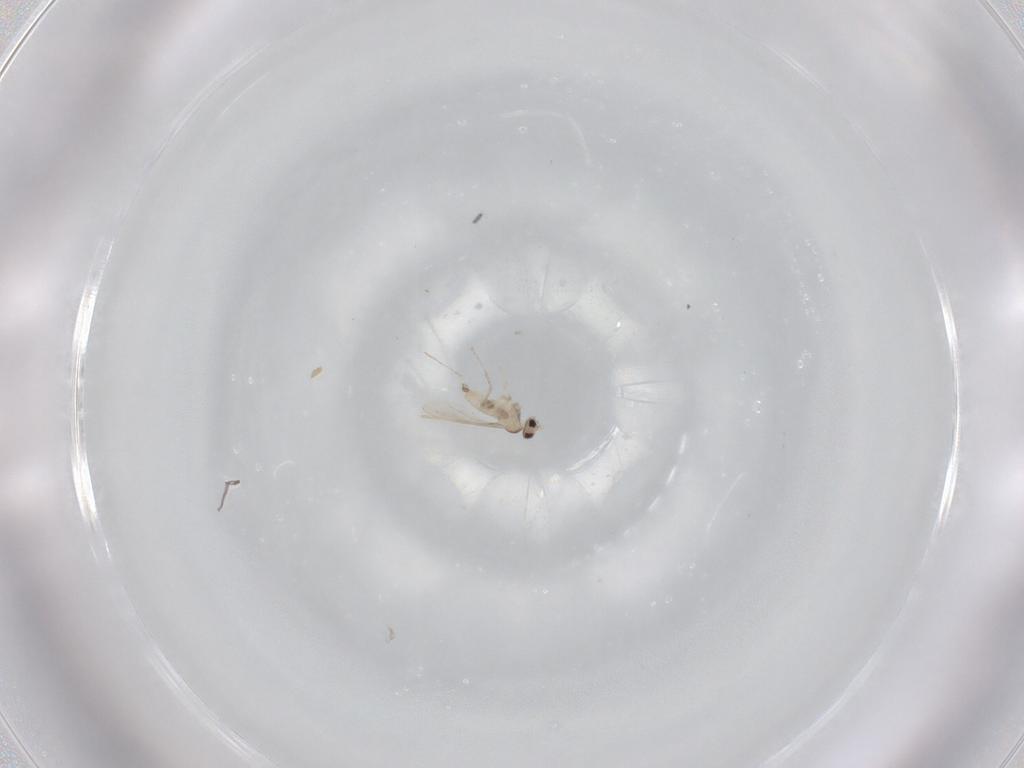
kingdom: Animalia
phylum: Arthropoda
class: Insecta
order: Diptera
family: Cecidomyiidae
